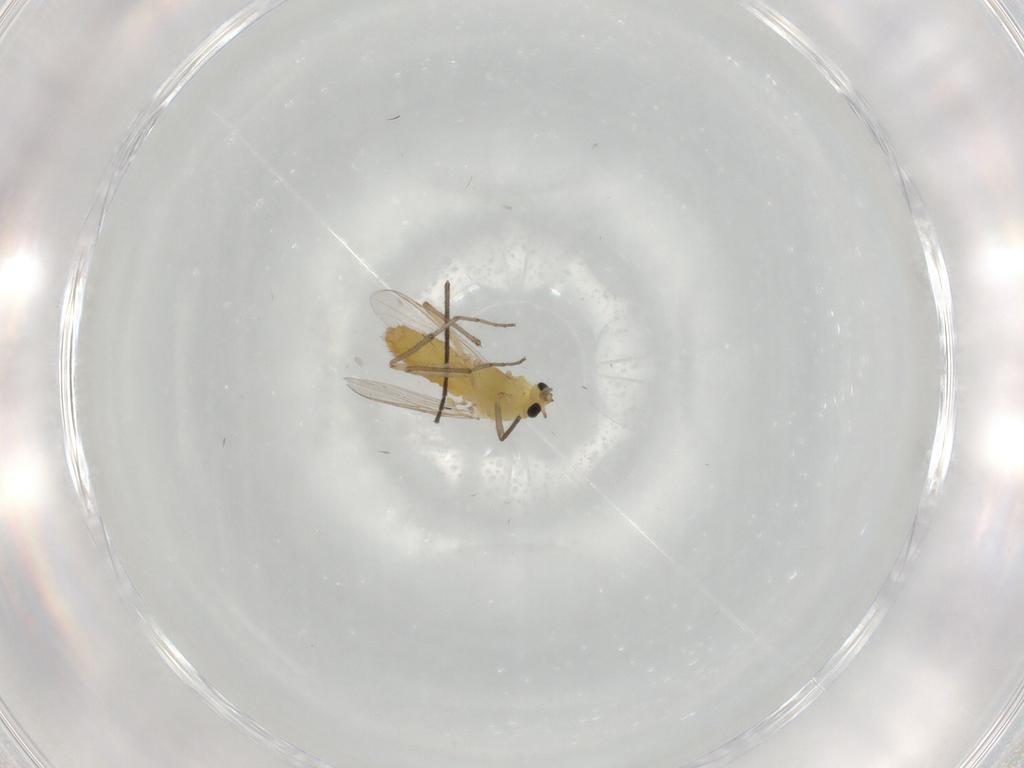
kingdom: Animalia
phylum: Arthropoda
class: Insecta
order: Diptera
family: Chironomidae
